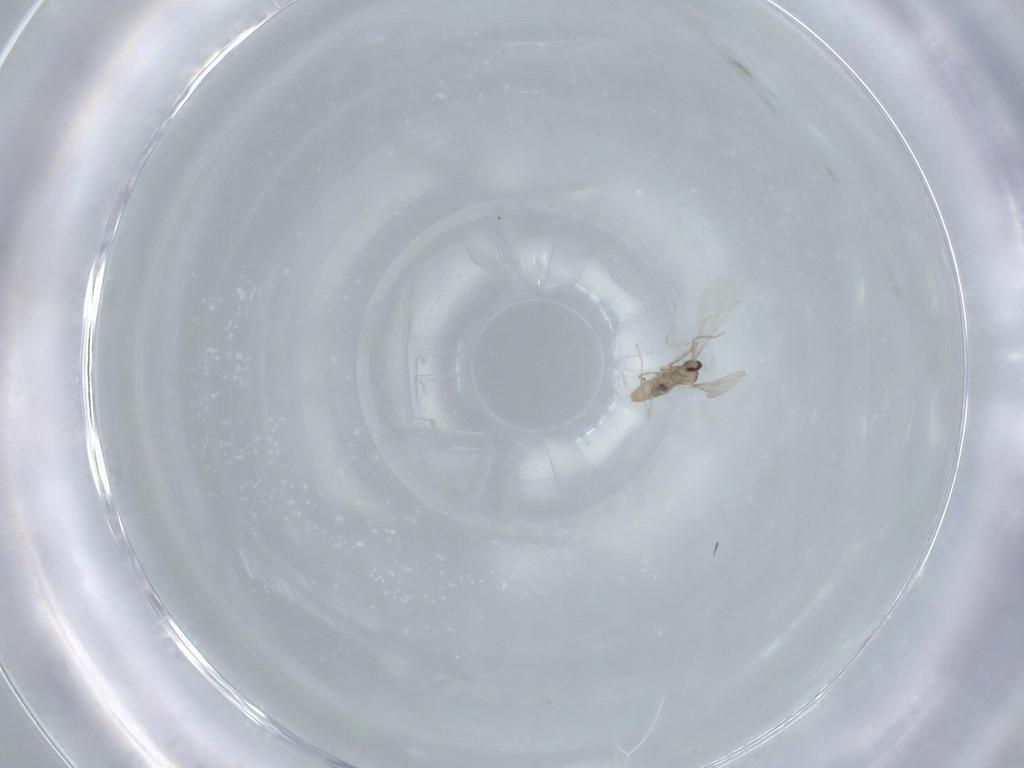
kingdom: Animalia
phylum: Arthropoda
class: Insecta
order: Diptera
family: Cecidomyiidae
